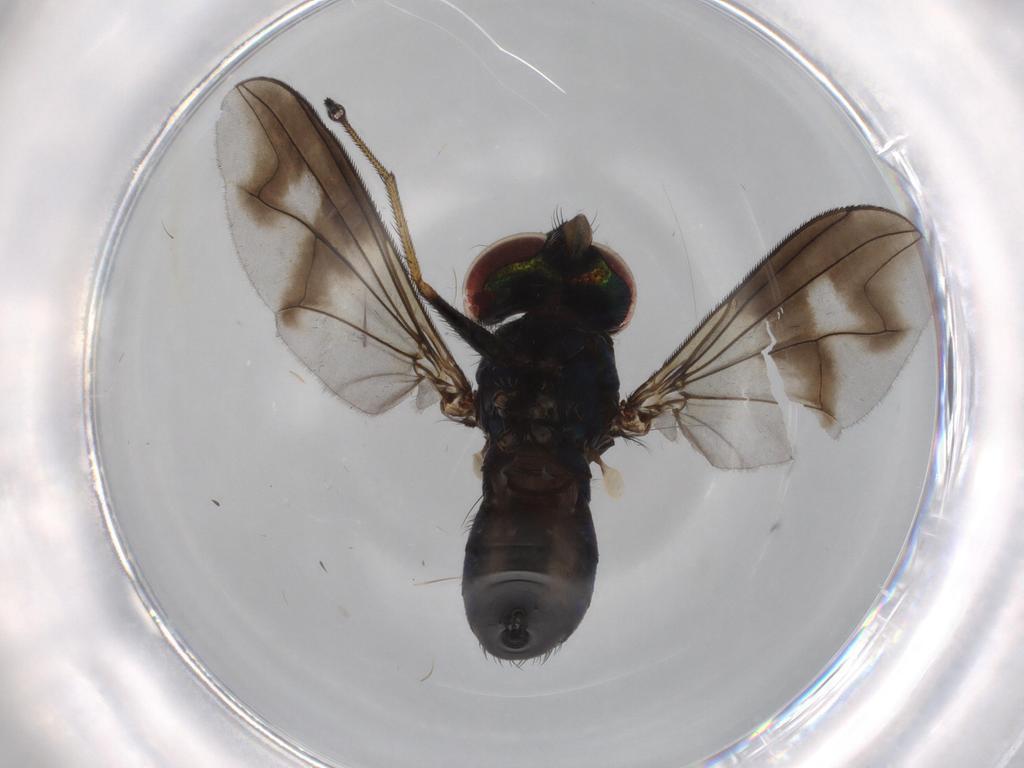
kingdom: Animalia
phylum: Arthropoda
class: Insecta
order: Diptera
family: Dolichopodidae
